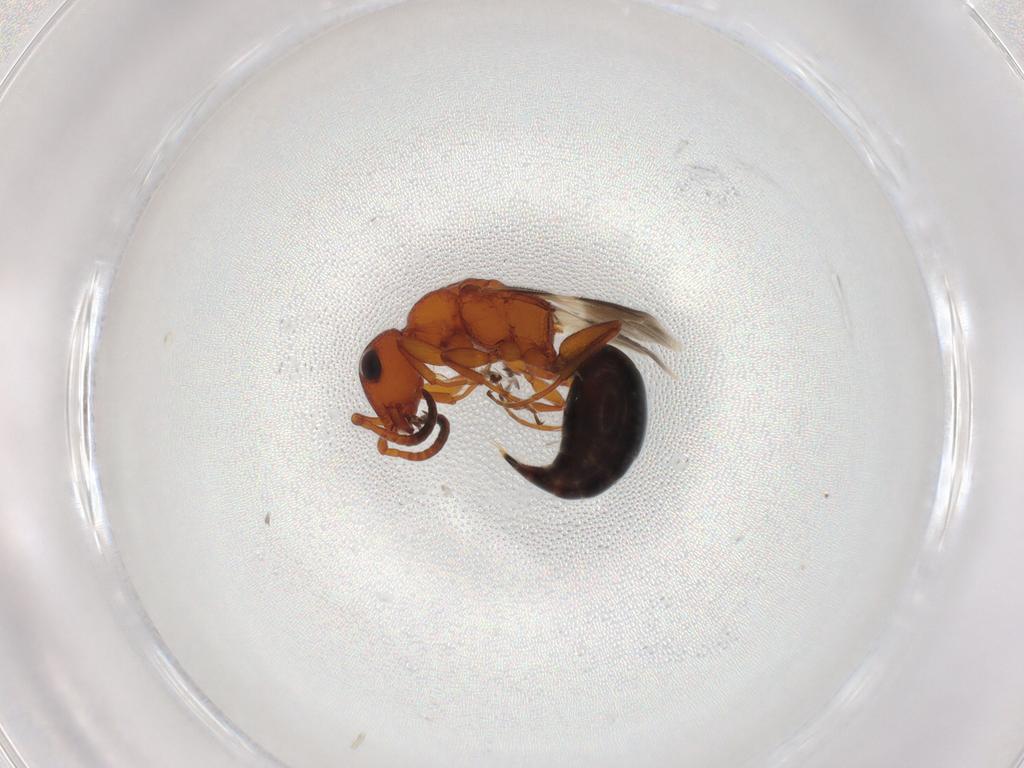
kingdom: Animalia
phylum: Arthropoda
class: Insecta
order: Hymenoptera
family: Bethylidae
